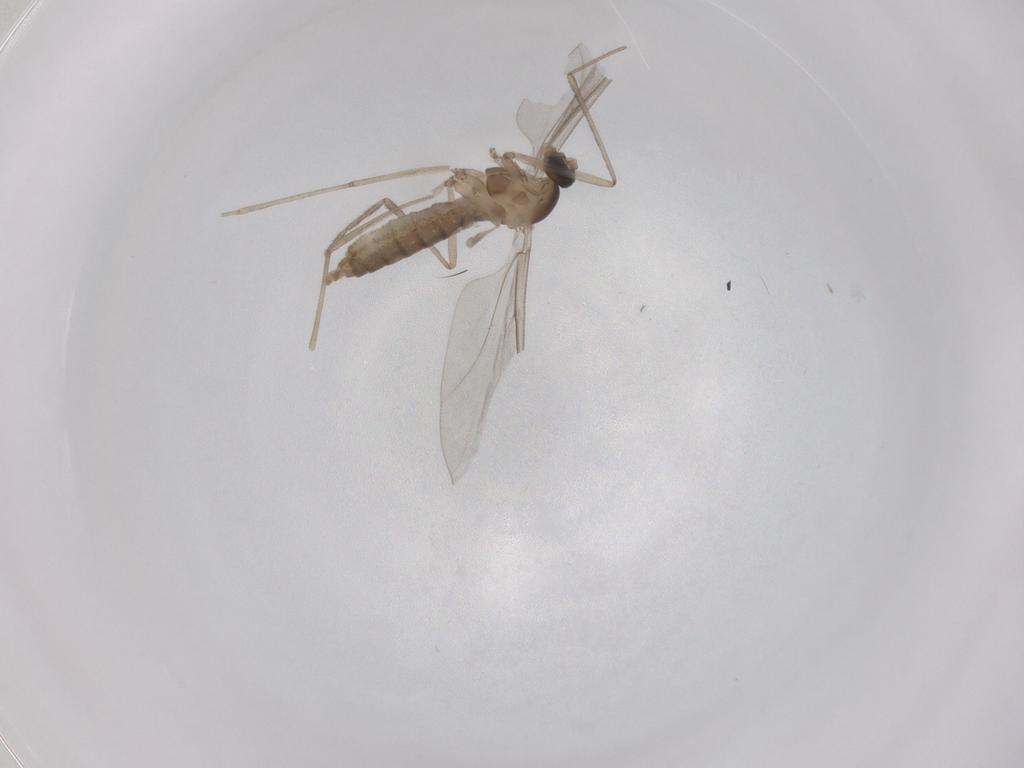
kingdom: Animalia
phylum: Arthropoda
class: Insecta
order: Diptera
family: Cecidomyiidae
